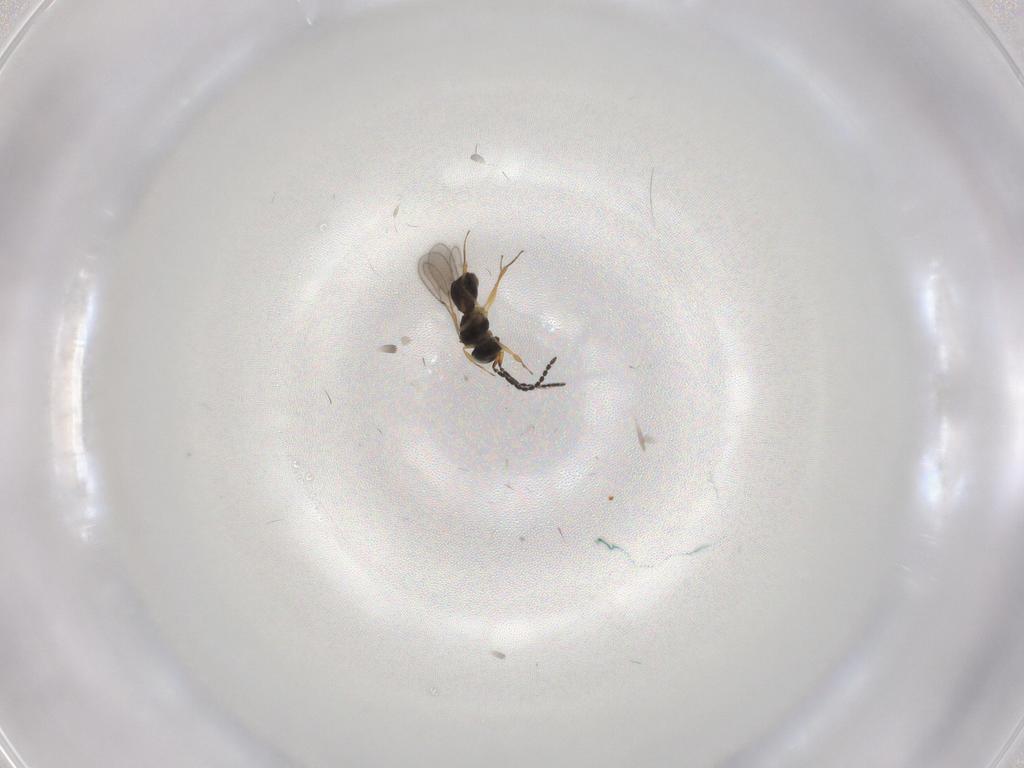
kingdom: Animalia
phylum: Arthropoda
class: Insecta
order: Hymenoptera
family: Scelionidae
